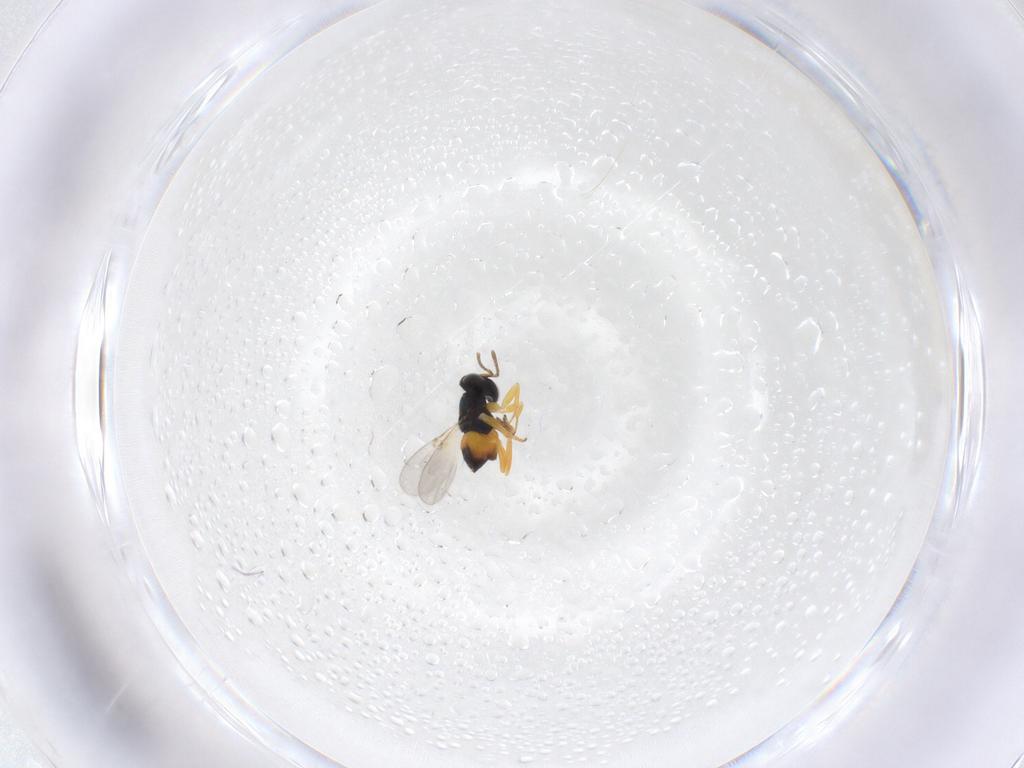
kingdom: Animalia
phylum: Arthropoda
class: Insecta
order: Hymenoptera
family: Encyrtidae
